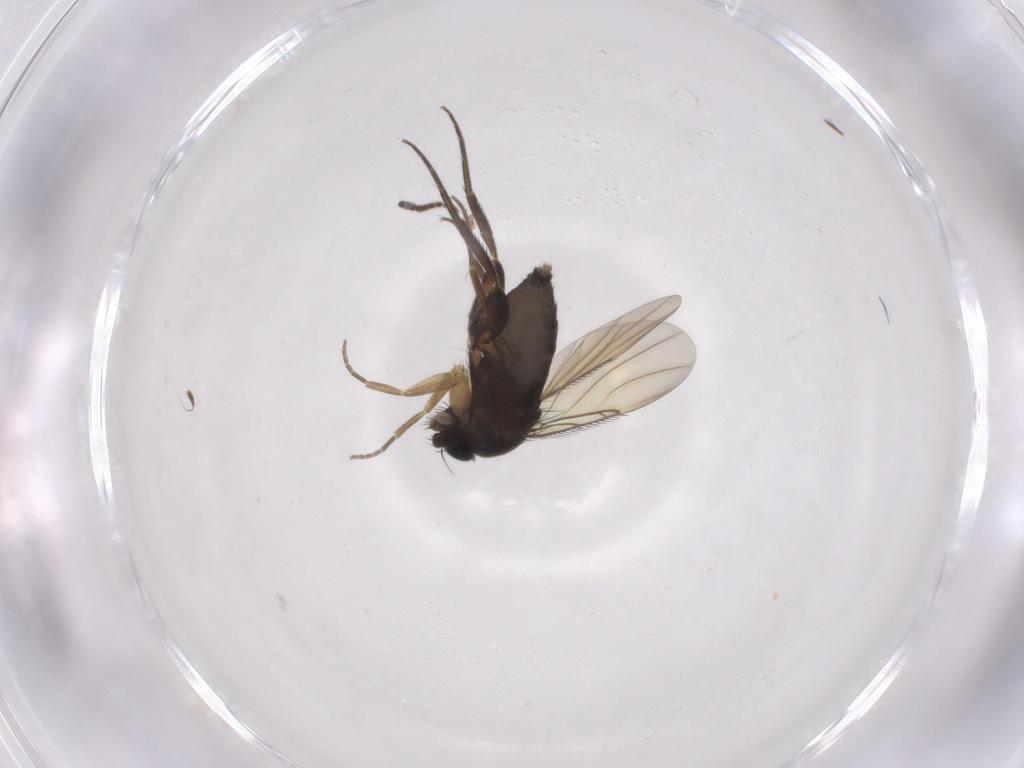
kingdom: Animalia
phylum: Arthropoda
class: Insecta
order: Diptera
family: Phoridae
